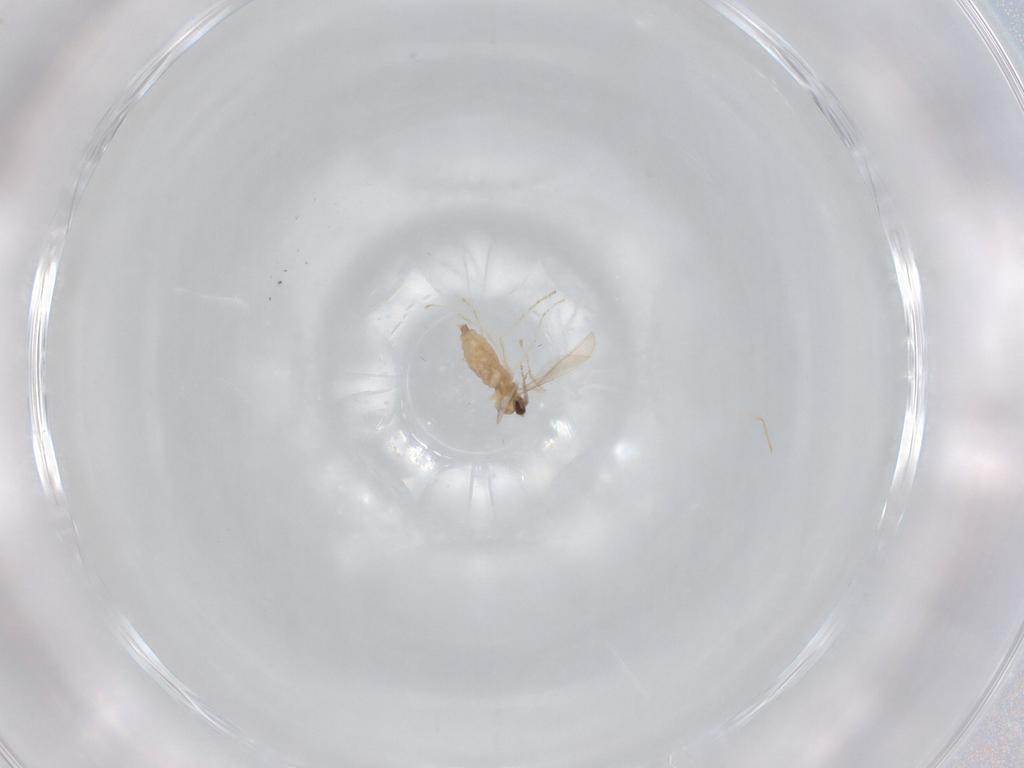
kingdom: Animalia
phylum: Arthropoda
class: Insecta
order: Diptera
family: Cecidomyiidae
